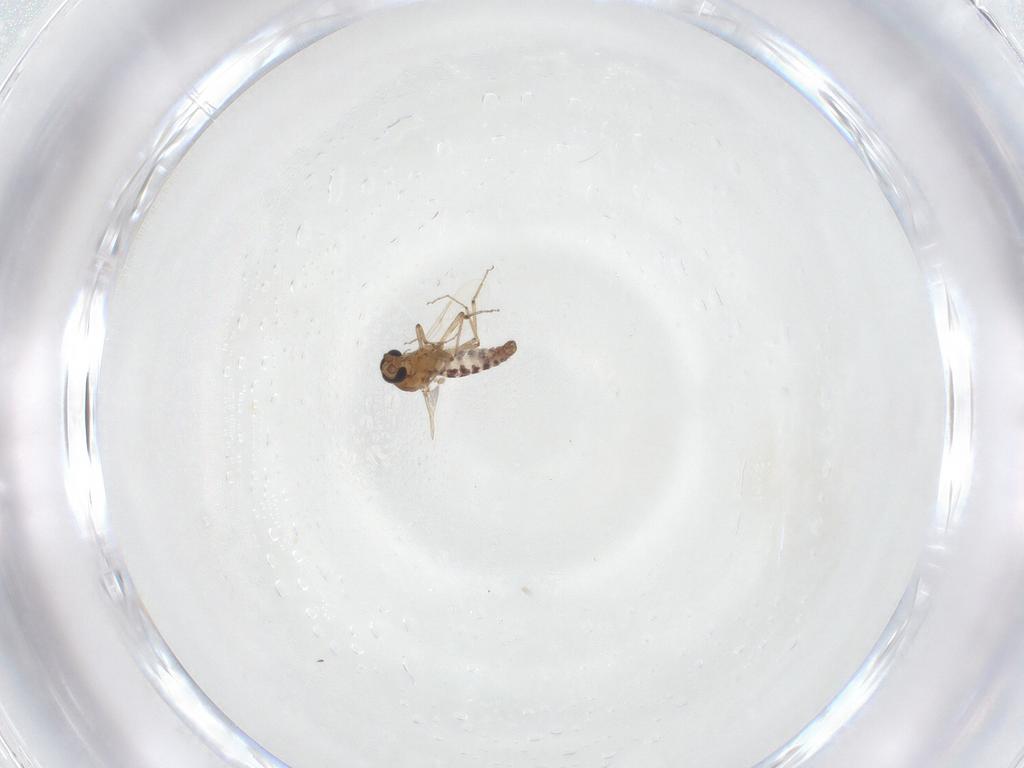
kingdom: Animalia
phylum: Arthropoda
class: Insecta
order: Diptera
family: Ceratopogonidae
